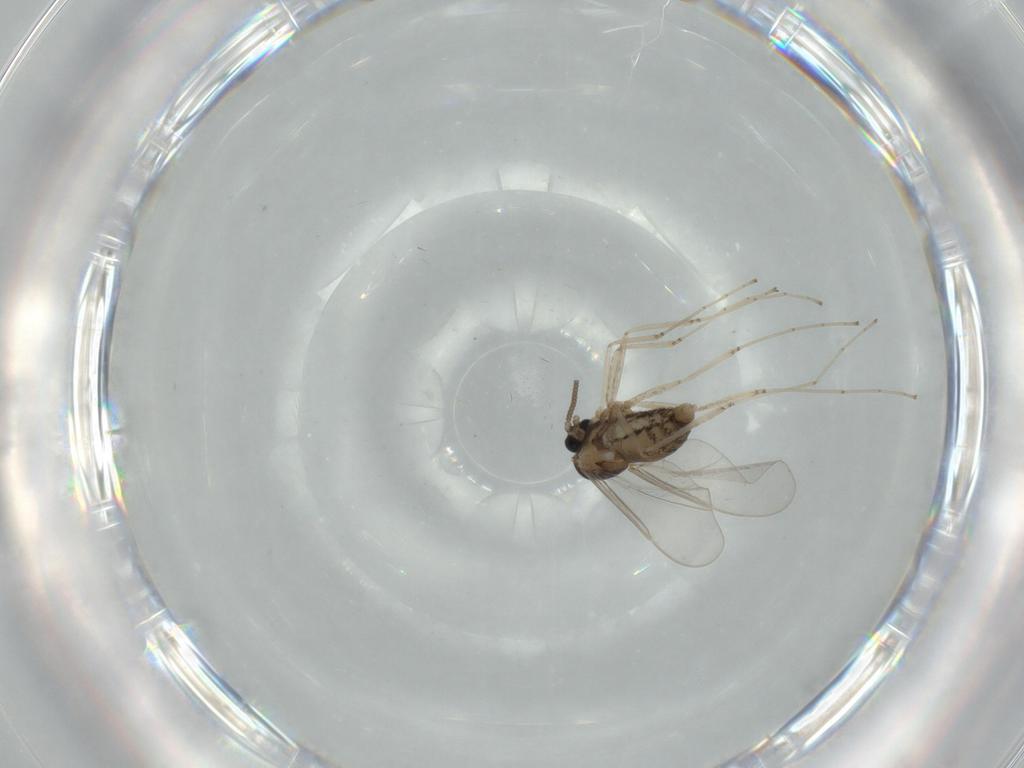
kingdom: Animalia
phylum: Arthropoda
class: Insecta
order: Diptera
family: Cecidomyiidae
